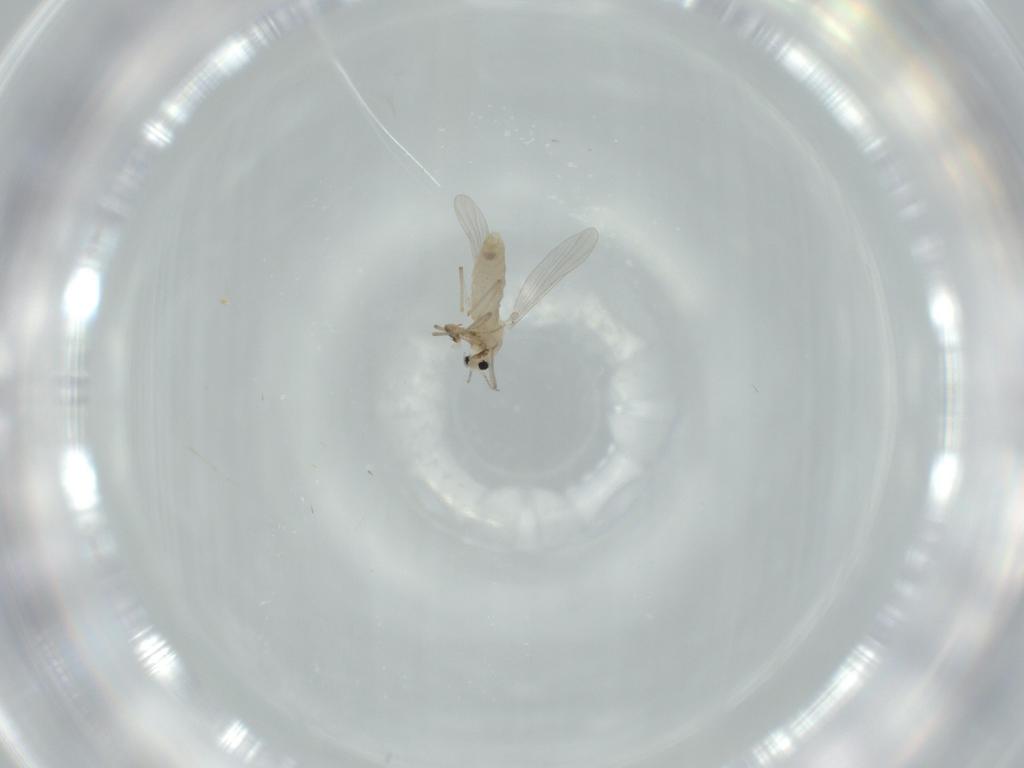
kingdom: Animalia
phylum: Arthropoda
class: Insecta
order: Diptera
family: Chironomidae
